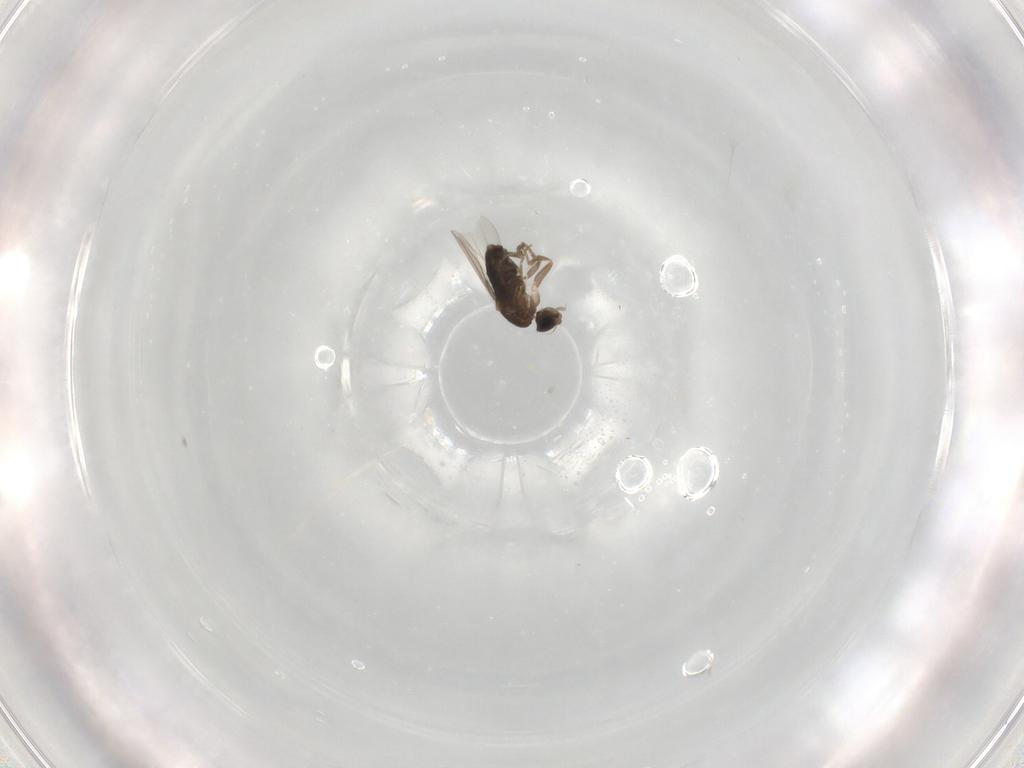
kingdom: Animalia
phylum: Arthropoda
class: Insecta
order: Diptera
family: Phoridae
